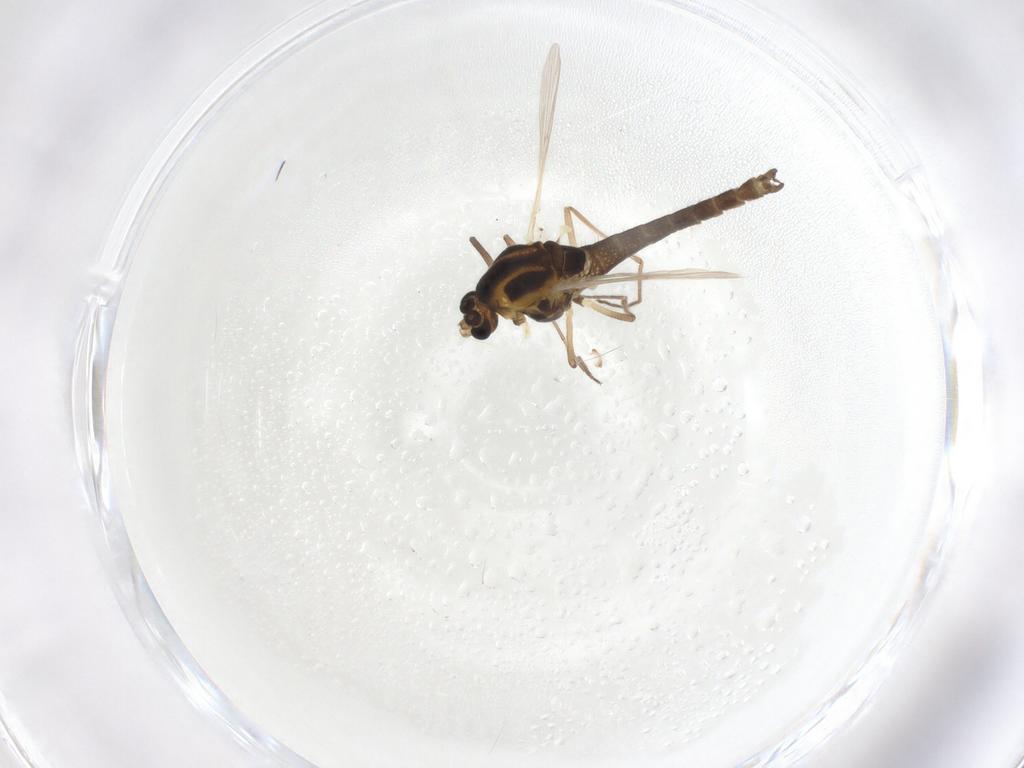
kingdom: Animalia
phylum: Arthropoda
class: Insecta
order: Diptera
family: Chironomidae
